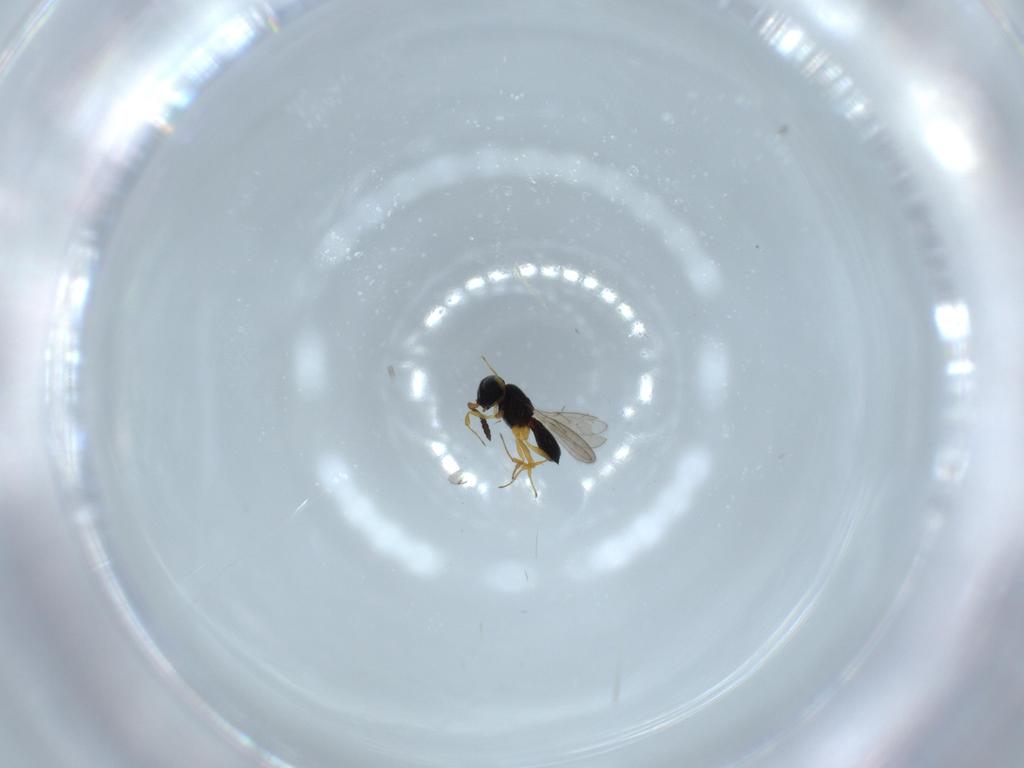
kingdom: Animalia
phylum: Arthropoda
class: Insecta
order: Hymenoptera
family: Scelionidae
